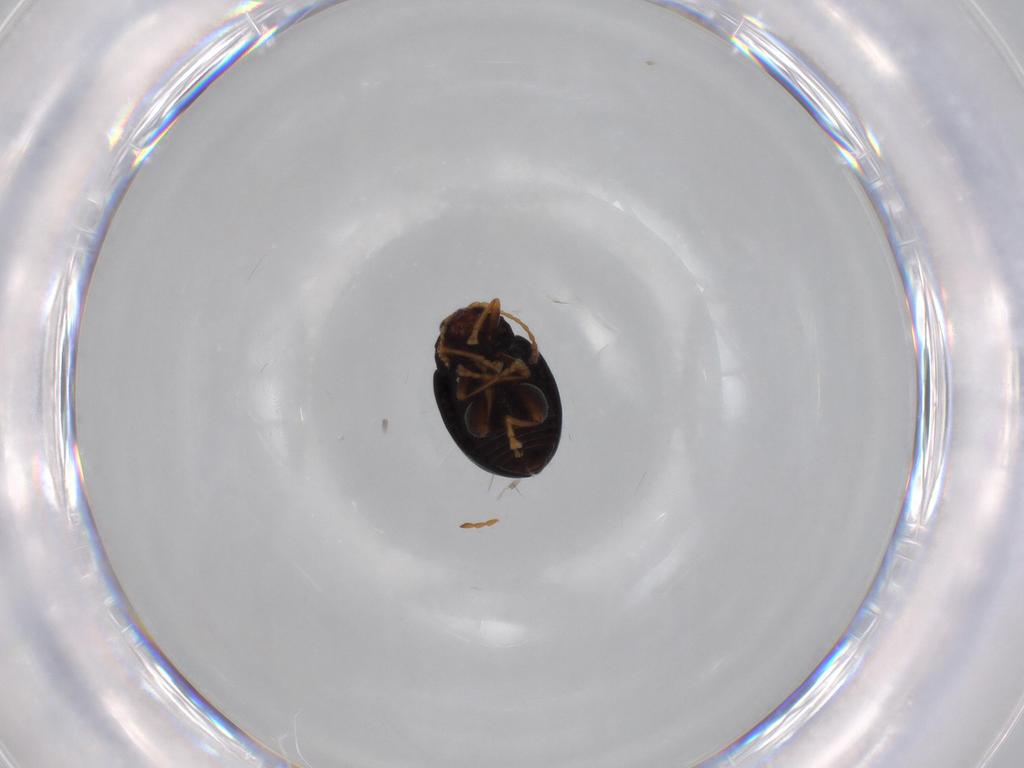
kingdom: Animalia
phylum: Arthropoda
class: Insecta
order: Coleoptera
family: Chrysomelidae
